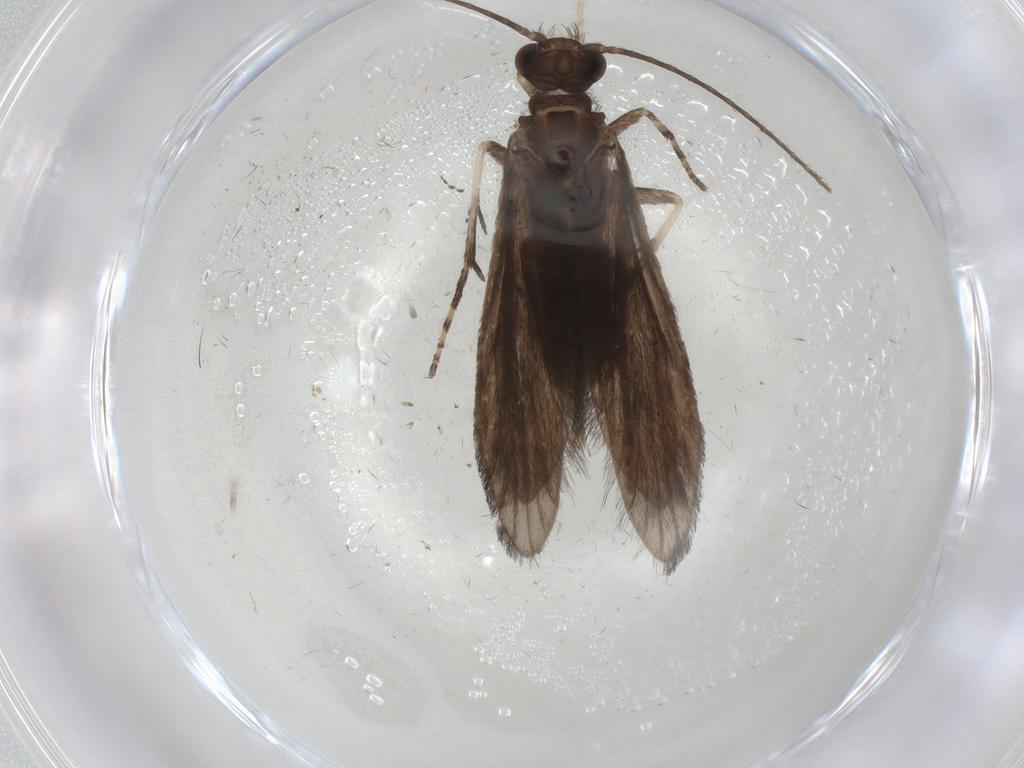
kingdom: Animalia
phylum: Arthropoda
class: Insecta
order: Trichoptera
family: Xiphocentronidae
